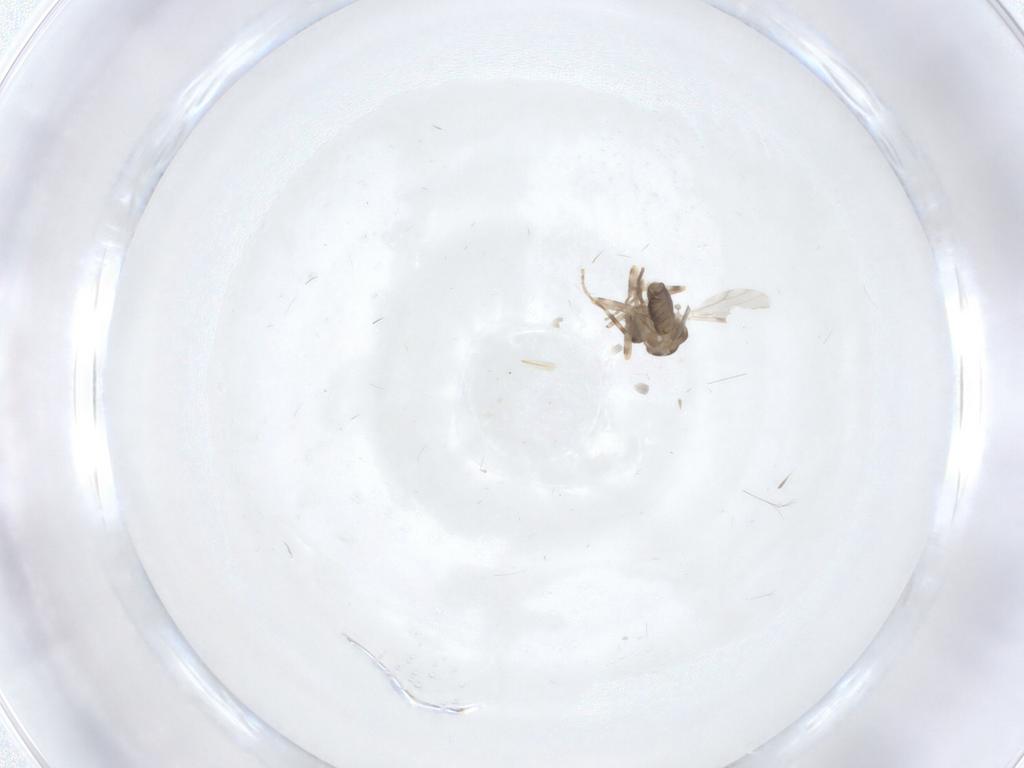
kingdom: Animalia
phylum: Arthropoda
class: Insecta
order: Diptera
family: Ceratopogonidae
